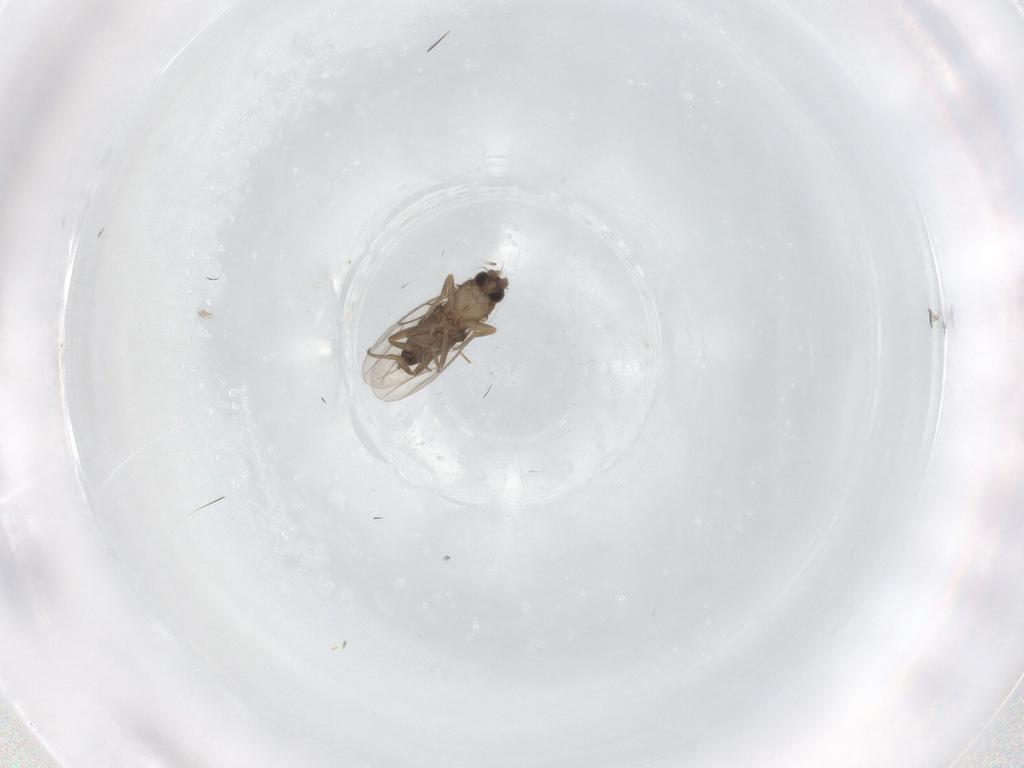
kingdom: Animalia
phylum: Arthropoda
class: Insecta
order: Diptera
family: Phoridae
